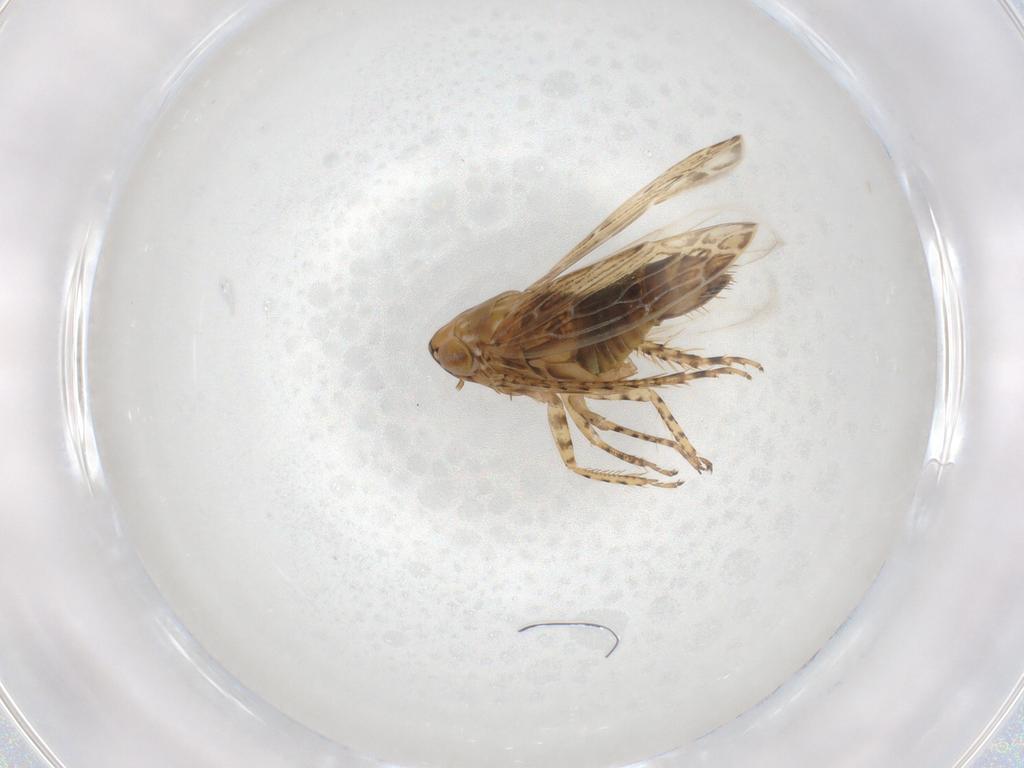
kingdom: Animalia
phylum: Arthropoda
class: Insecta
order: Hemiptera
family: Cicadellidae
